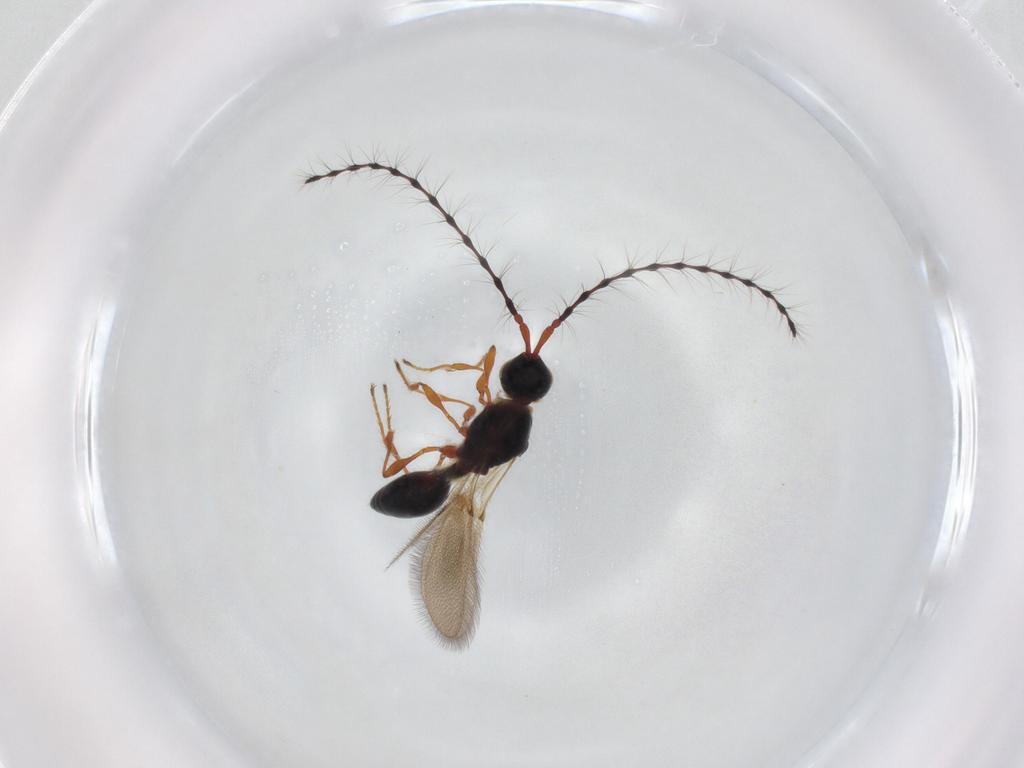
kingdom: Animalia
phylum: Arthropoda
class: Insecta
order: Hymenoptera
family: Diapriidae
